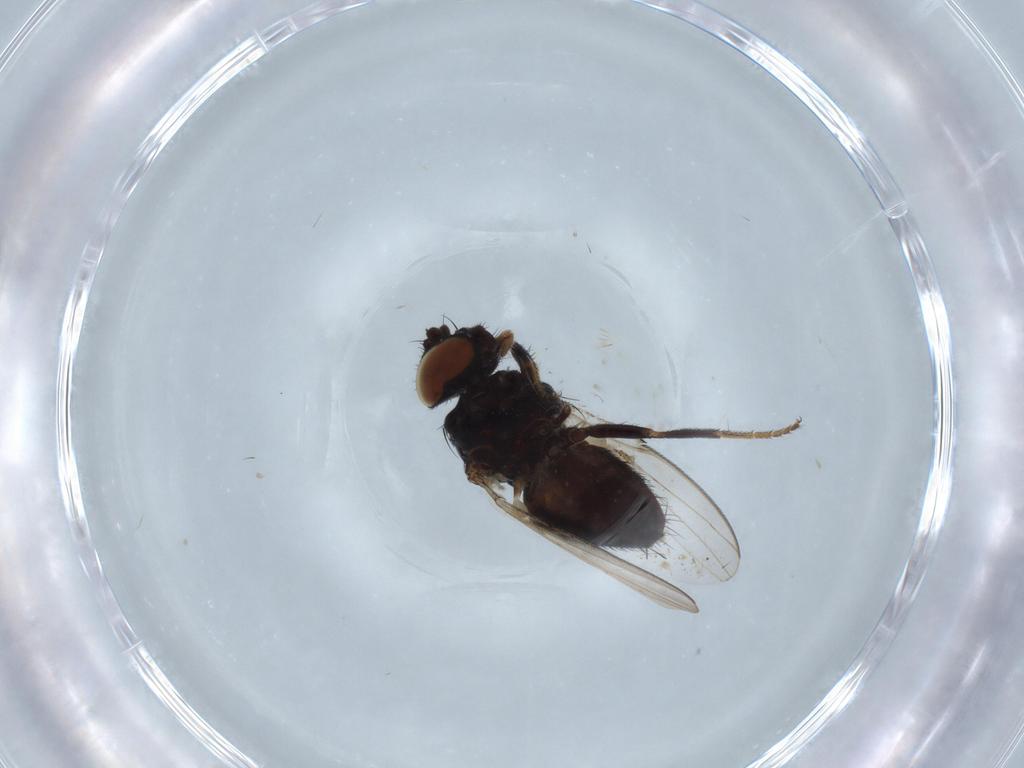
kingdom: Animalia
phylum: Arthropoda
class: Insecta
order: Diptera
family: Milichiidae
